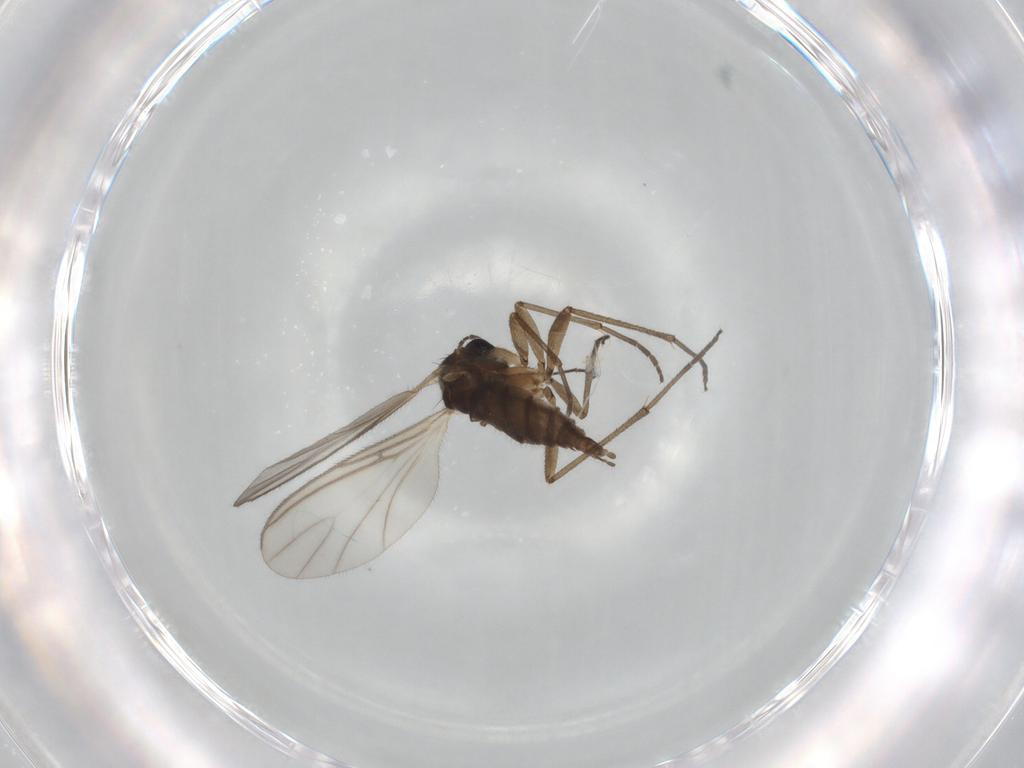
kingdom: Animalia
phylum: Arthropoda
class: Insecta
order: Diptera
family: Sciaridae
